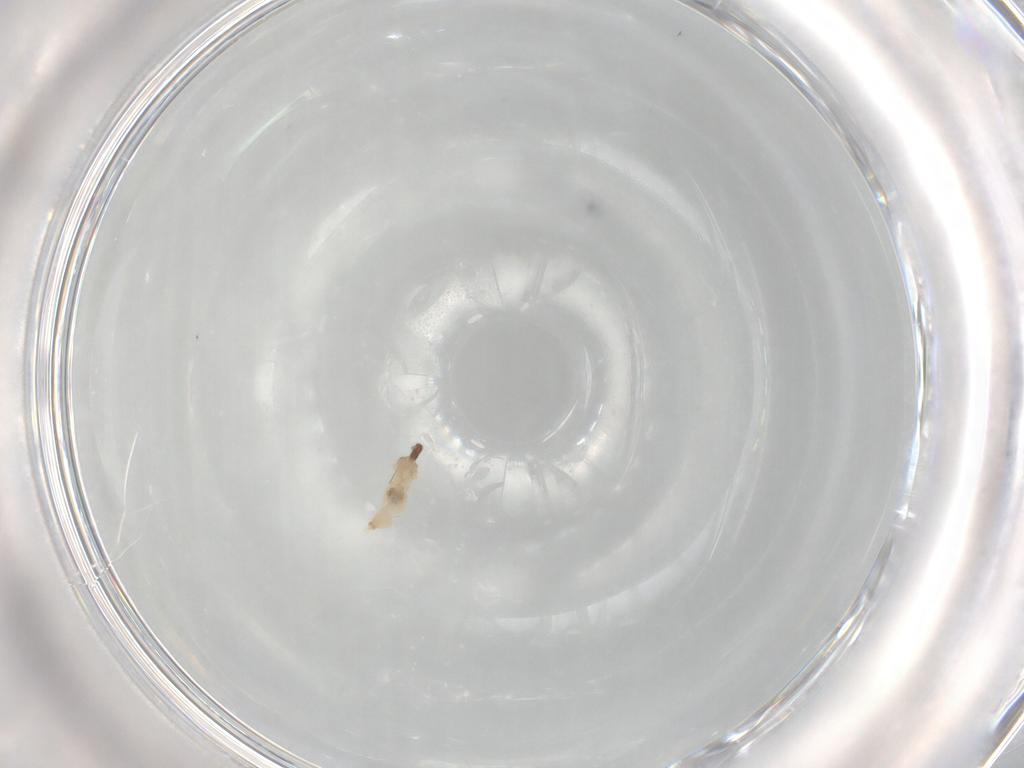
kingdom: Animalia
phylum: Arthropoda
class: Insecta
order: Diptera
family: Cecidomyiidae
